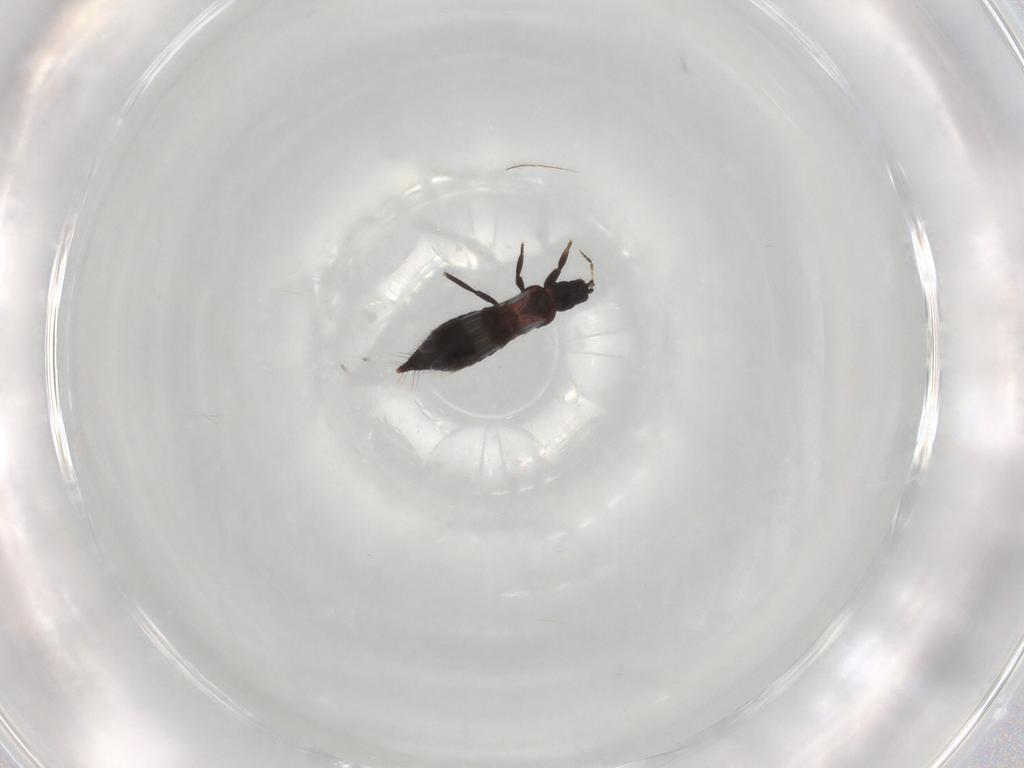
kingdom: Animalia
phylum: Arthropoda
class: Insecta
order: Thysanoptera
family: Aeolothripidae
